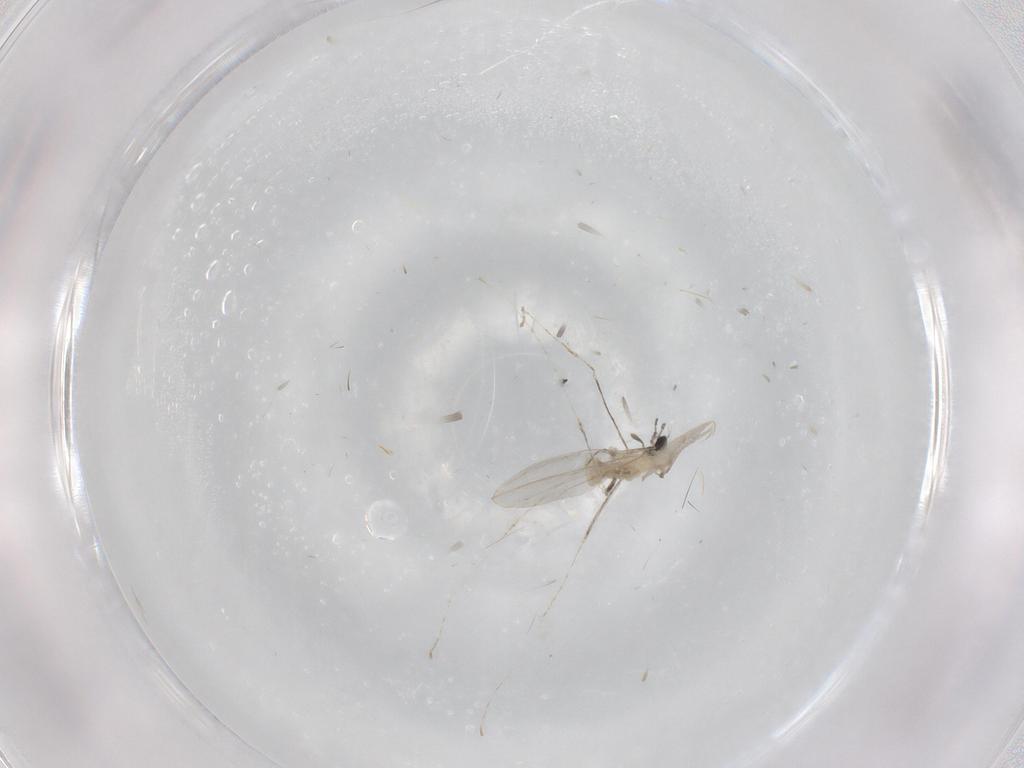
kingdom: Animalia
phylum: Arthropoda
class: Insecta
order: Diptera
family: Cecidomyiidae
